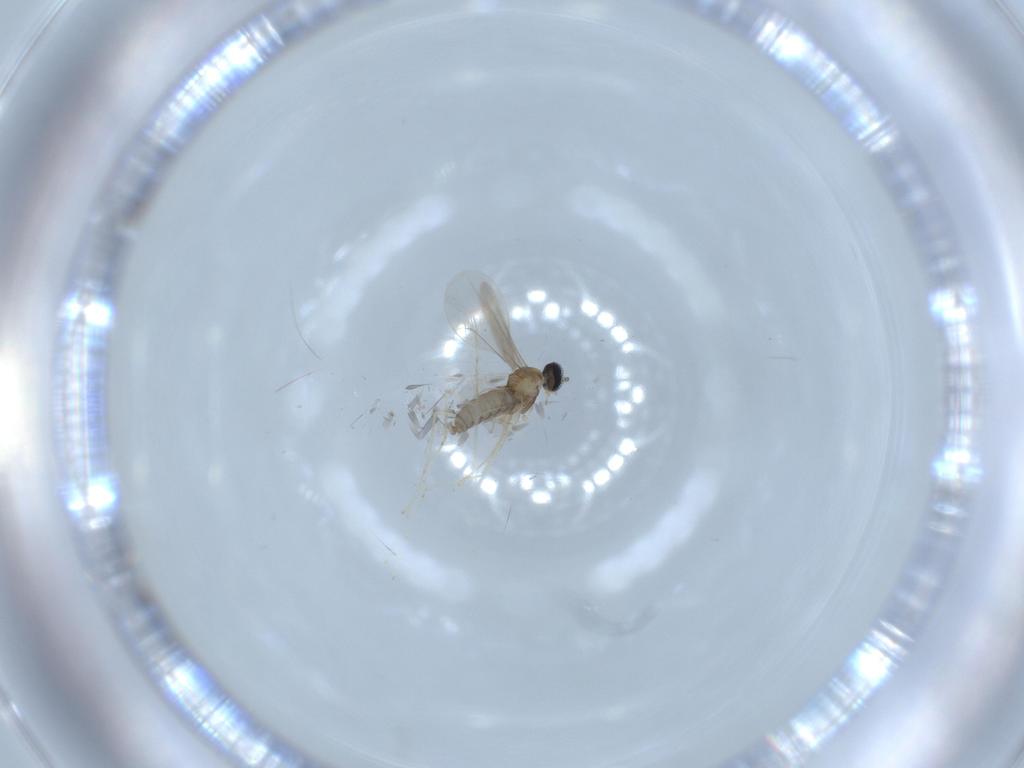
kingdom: Animalia
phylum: Arthropoda
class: Insecta
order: Diptera
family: Cecidomyiidae
